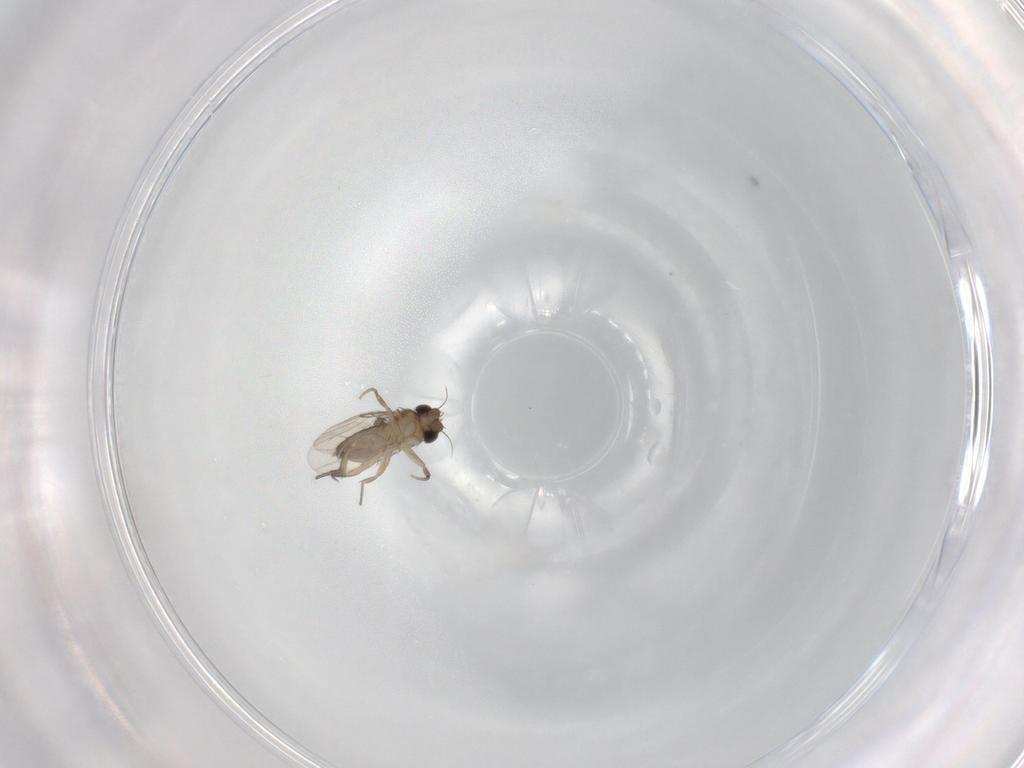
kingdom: Animalia
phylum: Arthropoda
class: Insecta
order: Diptera
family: Phoridae
